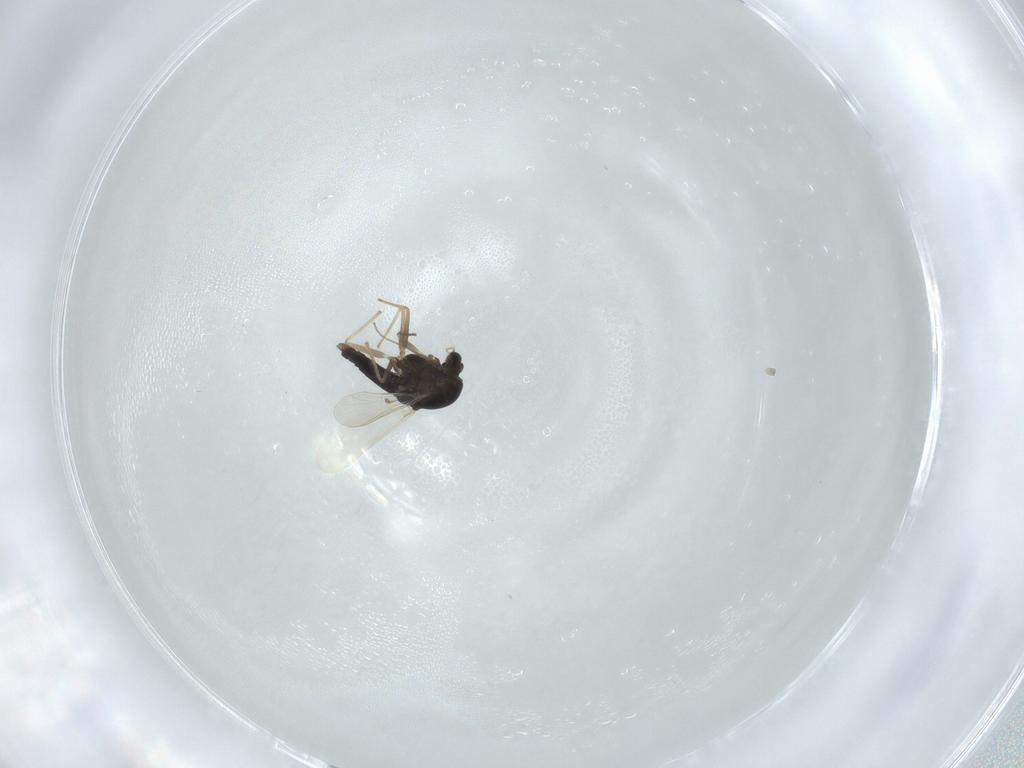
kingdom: Animalia
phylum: Arthropoda
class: Insecta
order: Diptera
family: Chironomidae
